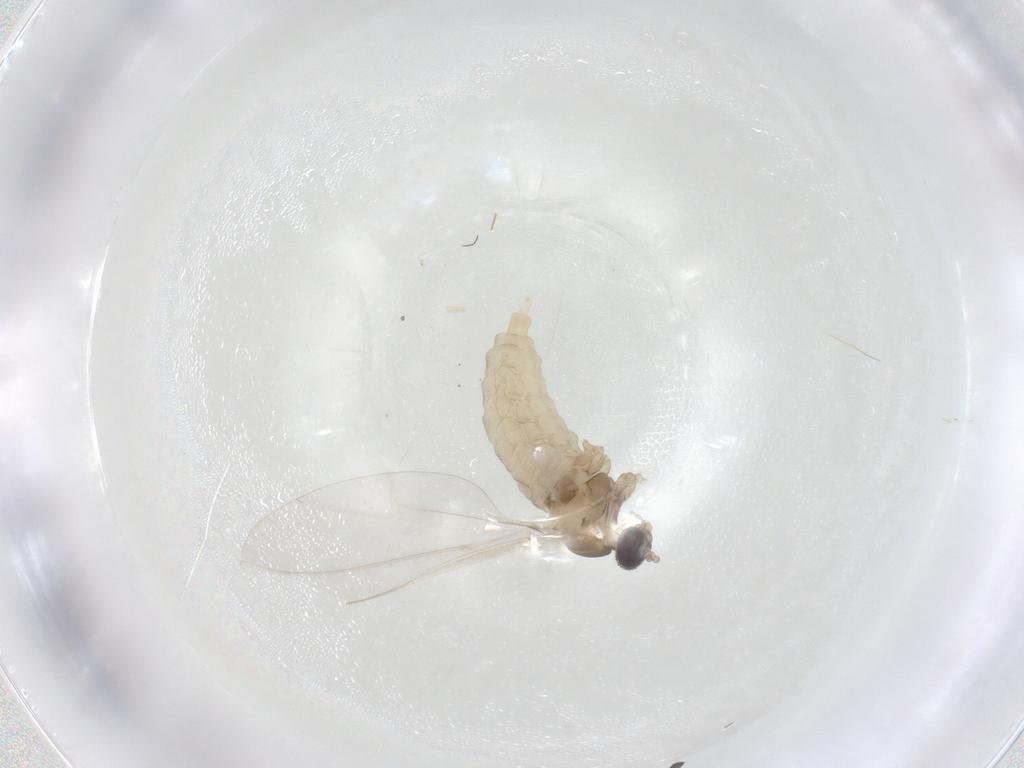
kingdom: Animalia
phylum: Arthropoda
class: Insecta
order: Diptera
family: Cecidomyiidae
